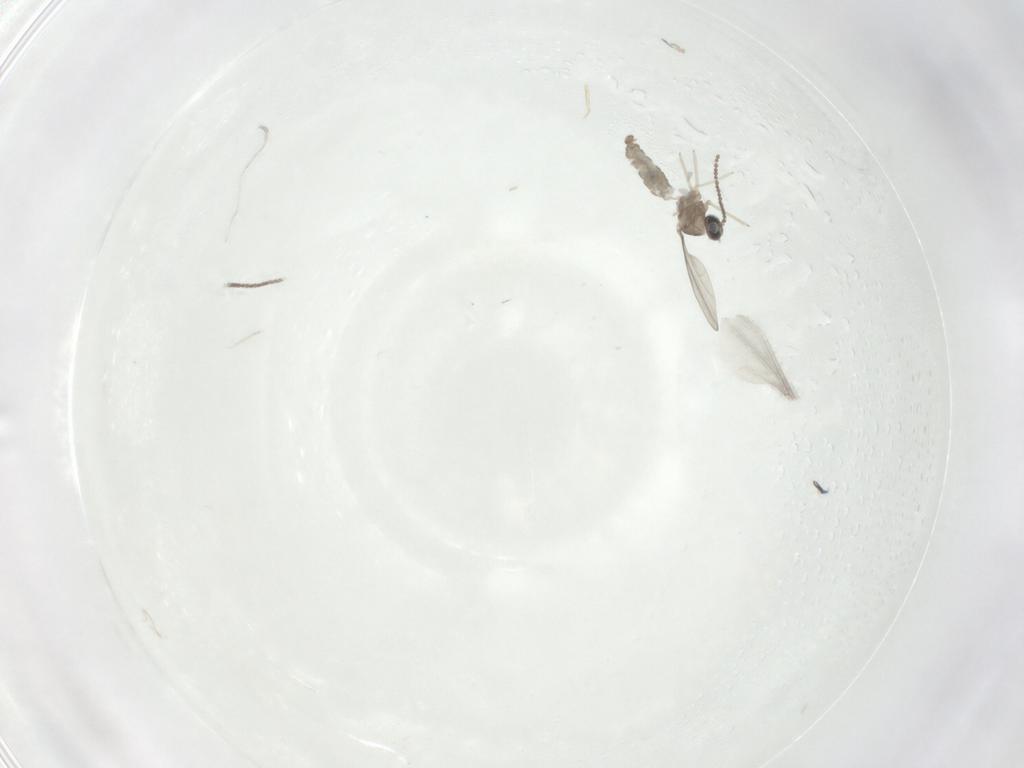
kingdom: Animalia
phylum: Arthropoda
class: Insecta
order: Diptera
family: Cecidomyiidae
